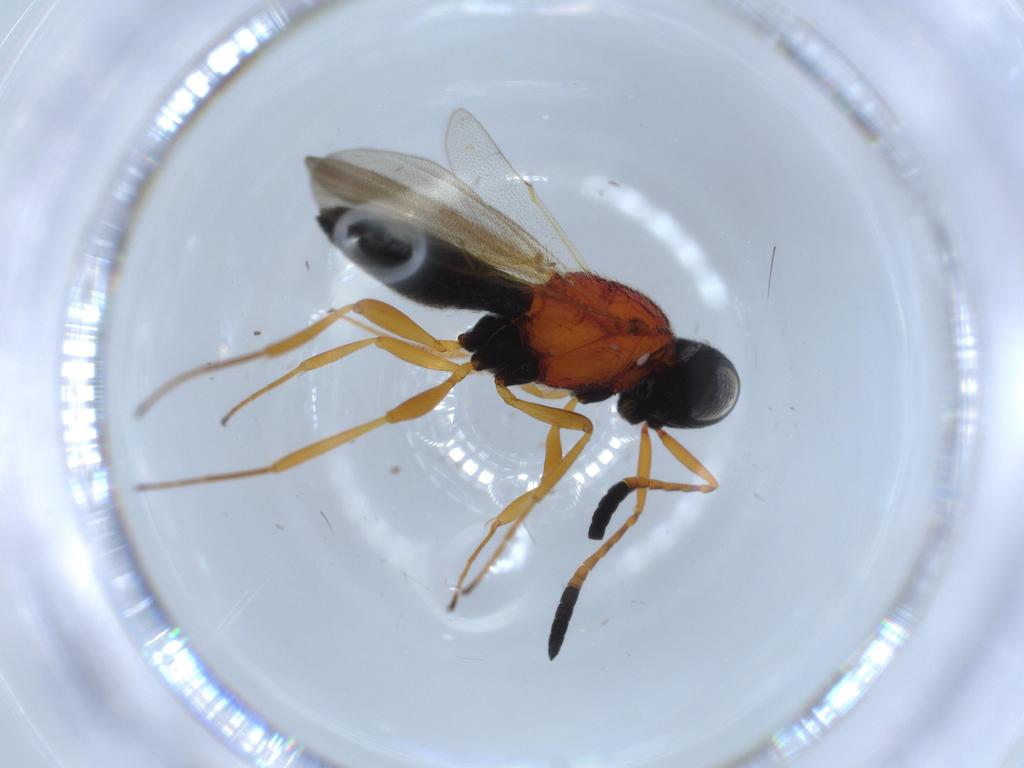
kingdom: Animalia
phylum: Arthropoda
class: Insecta
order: Hymenoptera
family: Scelionidae
